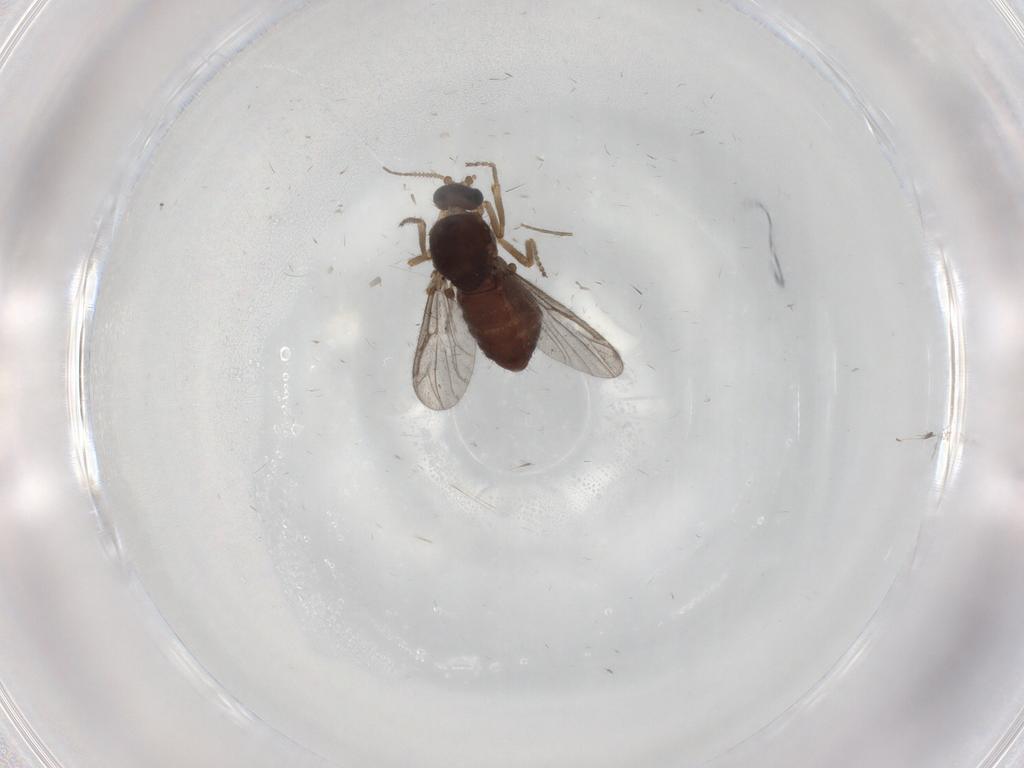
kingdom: Animalia
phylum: Arthropoda
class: Insecta
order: Diptera
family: Ceratopogonidae
